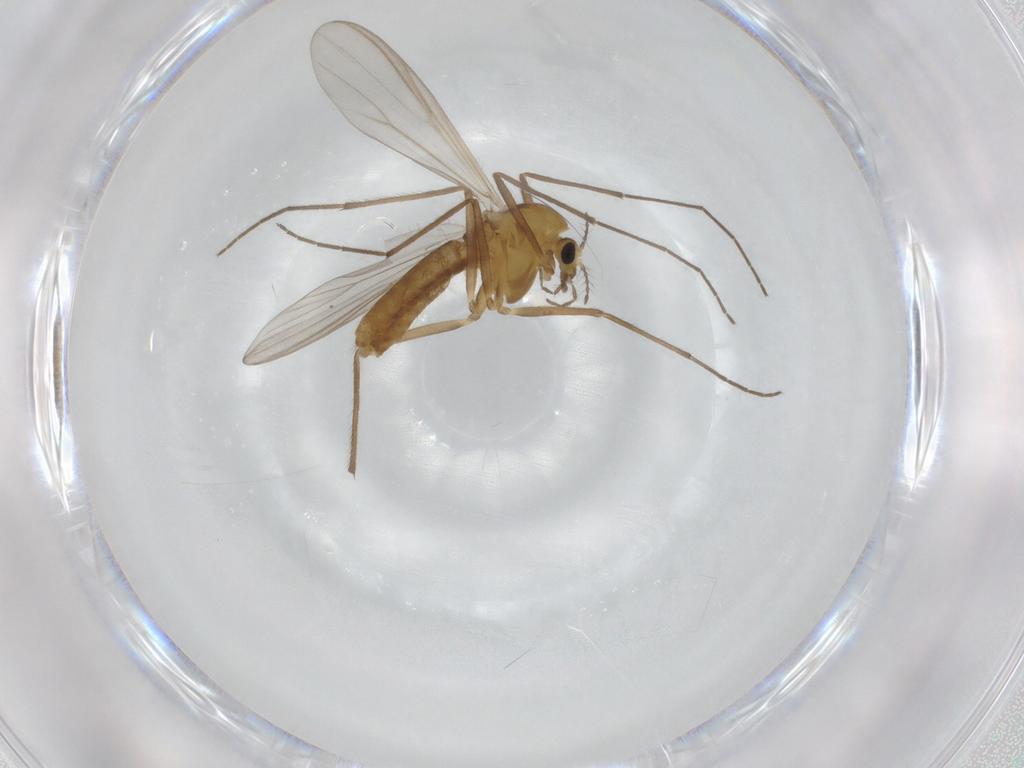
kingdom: Animalia
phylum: Arthropoda
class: Insecta
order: Diptera
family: Chironomidae
